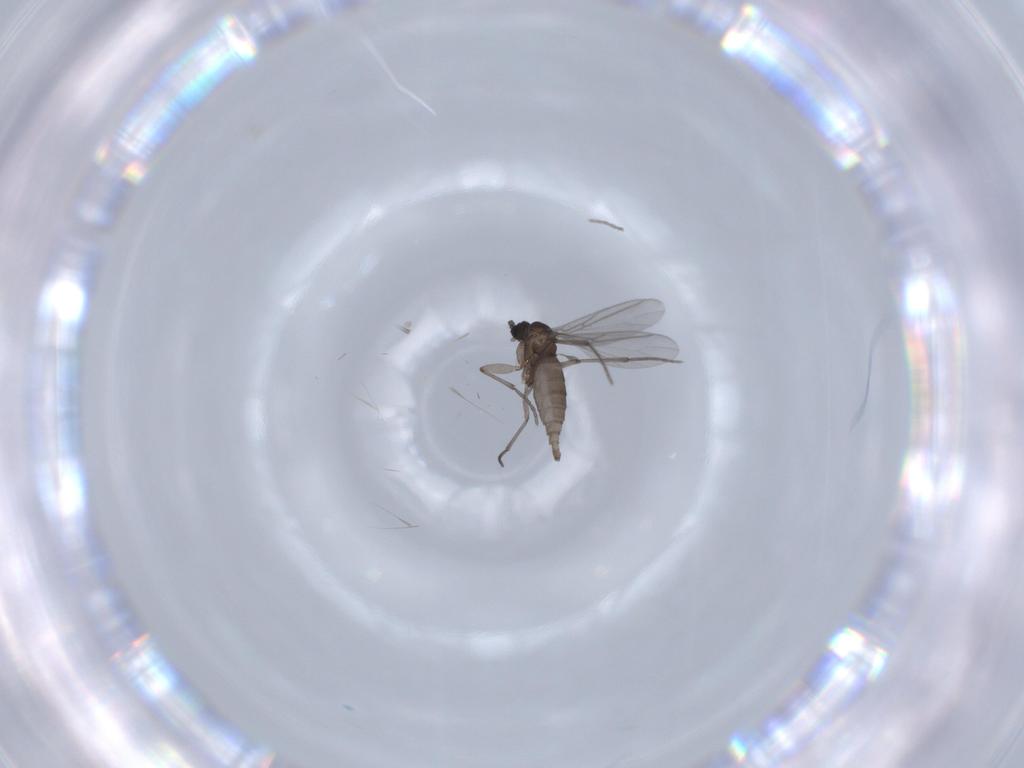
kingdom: Animalia
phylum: Arthropoda
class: Insecta
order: Diptera
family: Sciaridae
